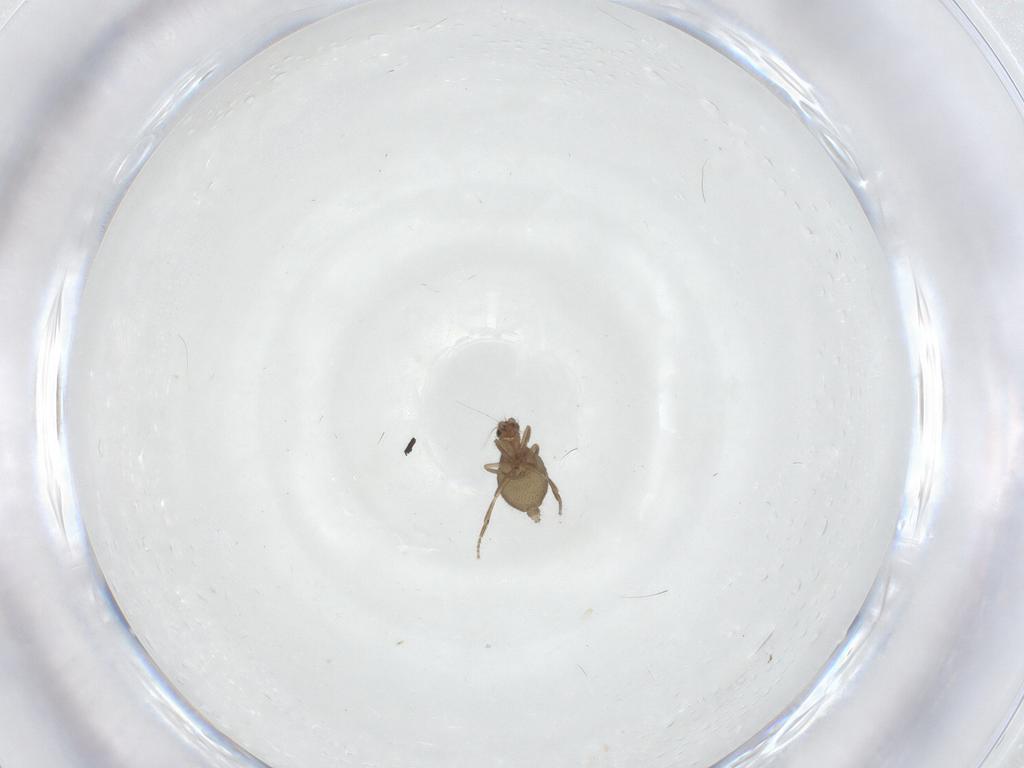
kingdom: Animalia
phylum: Arthropoda
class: Insecta
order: Diptera
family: Phoridae
